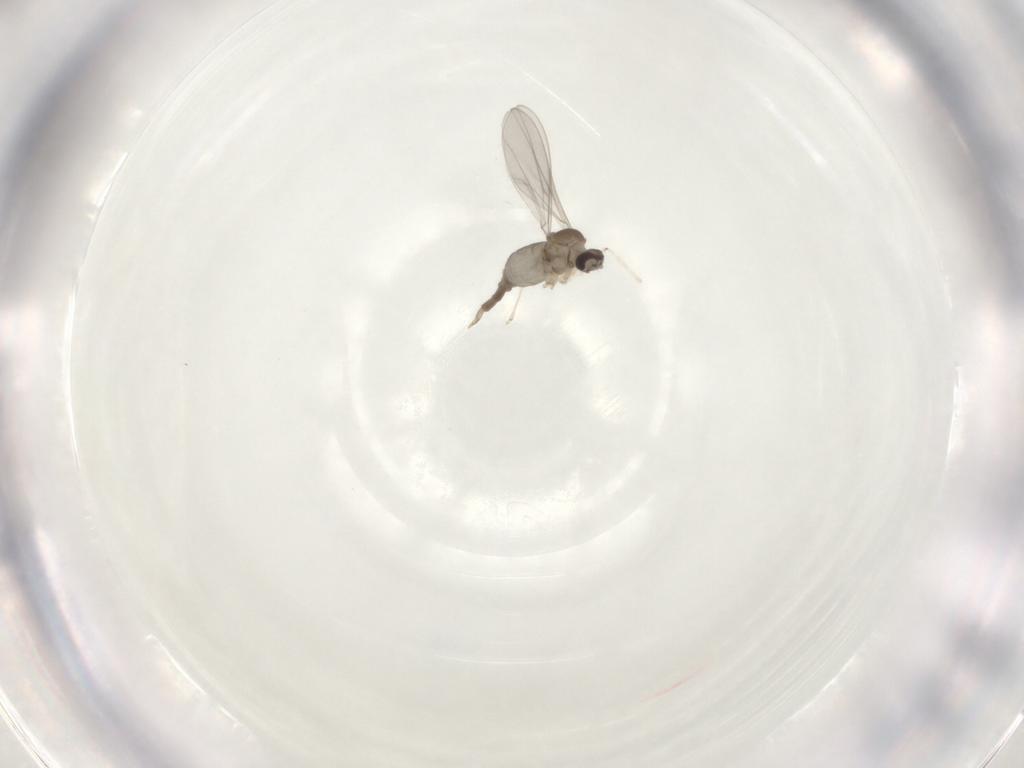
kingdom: Animalia
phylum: Arthropoda
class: Insecta
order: Diptera
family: Cecidomyiidae
